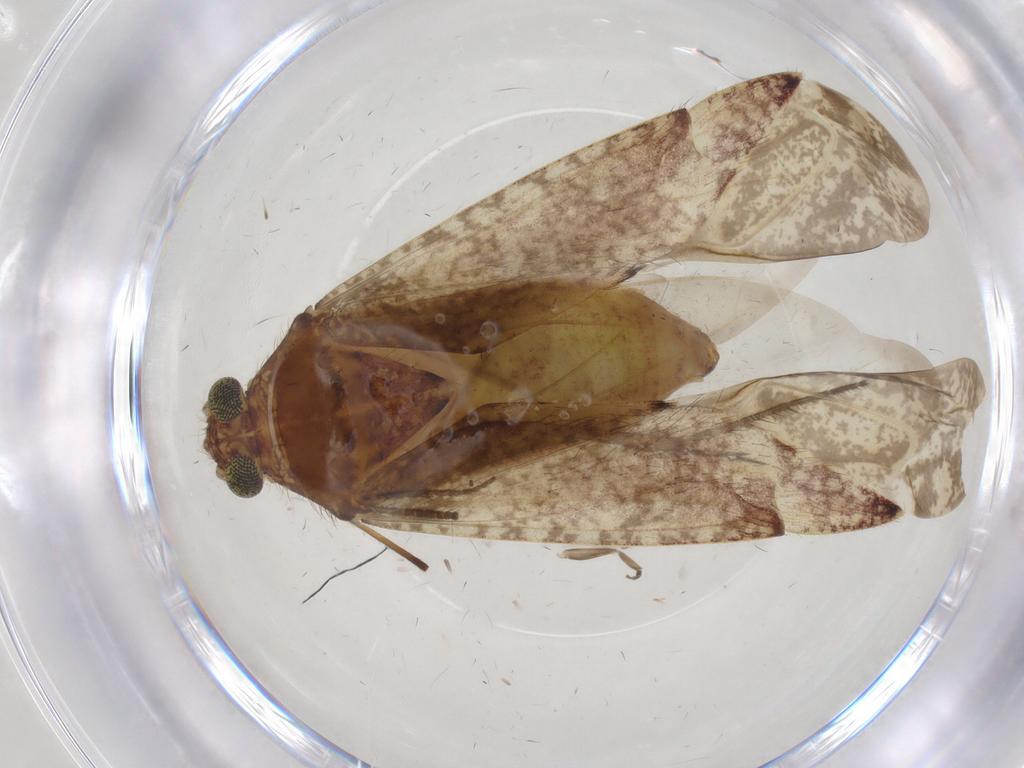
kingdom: Animalia
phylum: Arthropoda
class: Insecta
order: Hemiptera
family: Miridae
